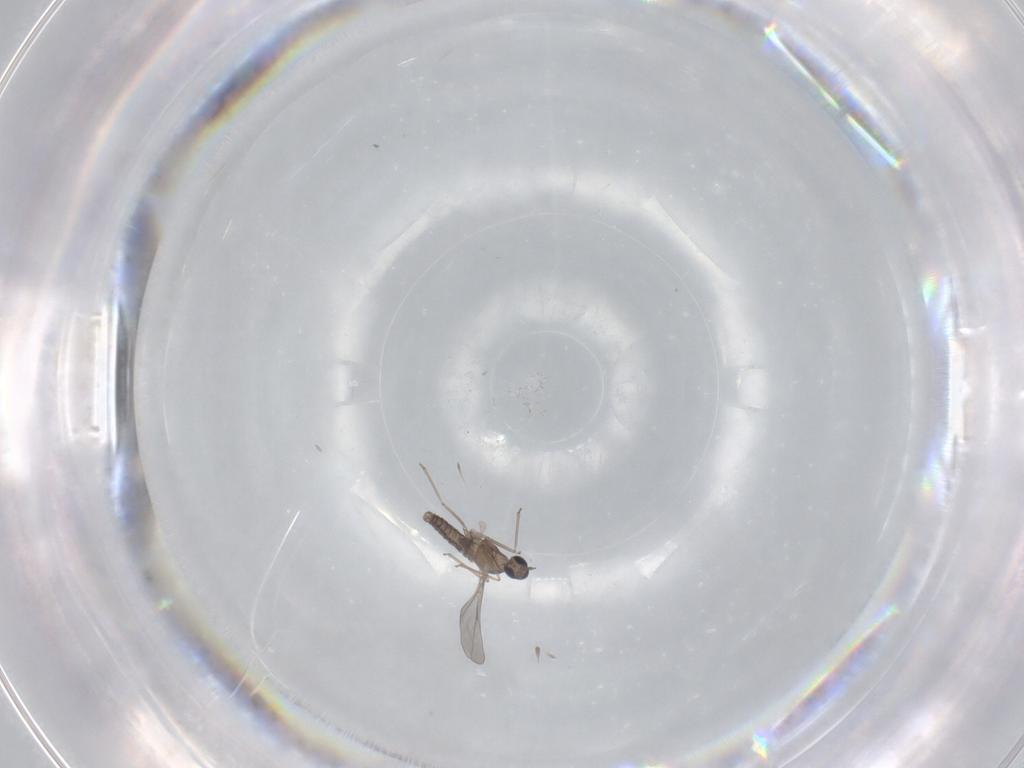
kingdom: Animalia
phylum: Arthropoda
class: Insecta
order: Diptera
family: Cecidomyiidae
